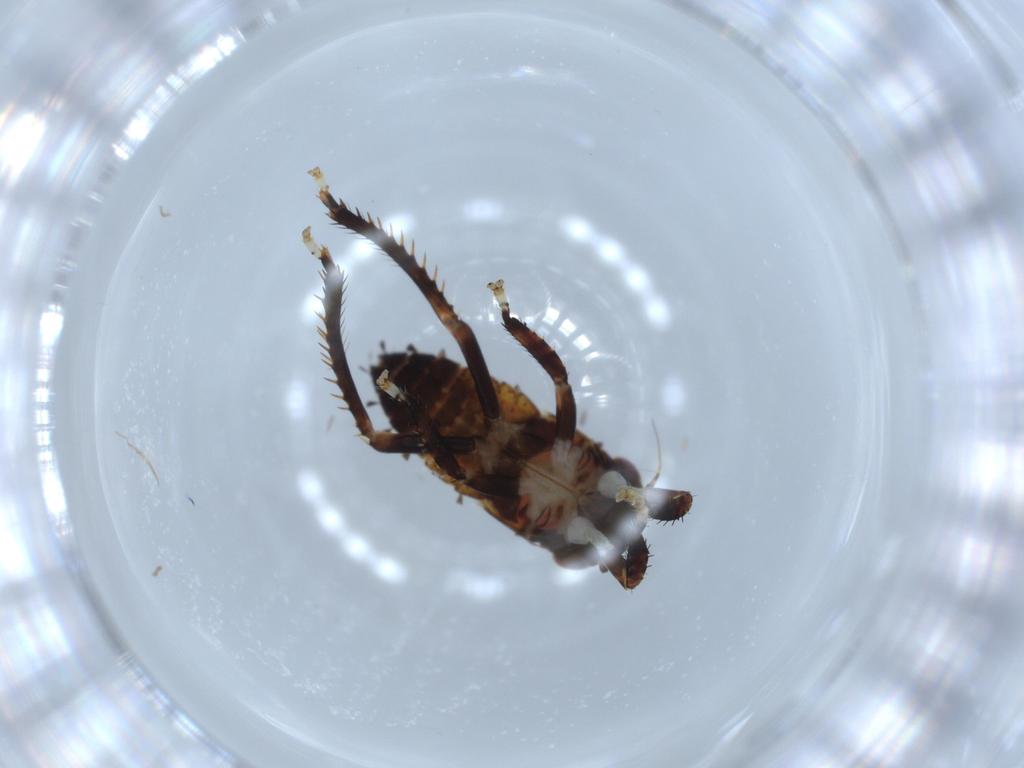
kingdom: Animalia
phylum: Arthropoda
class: Insecta
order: Hemiptera
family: Cicadellidae
